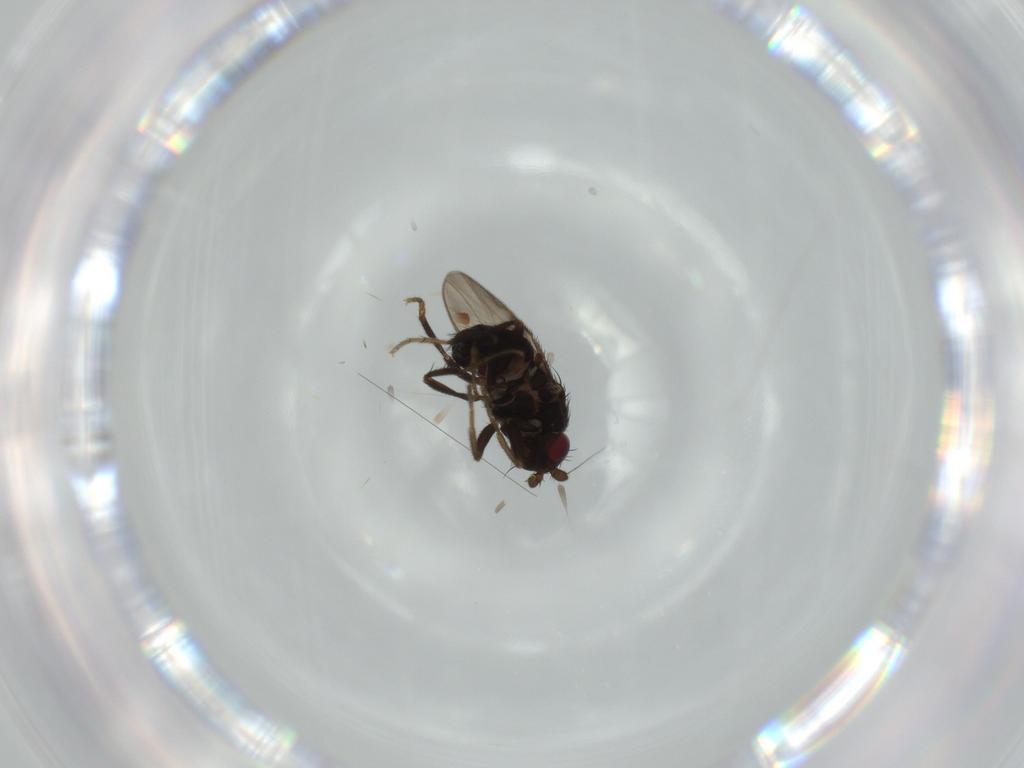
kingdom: Animalia
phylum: Arthropoda
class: Insecta
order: Diptera
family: Sphaeroceridae
